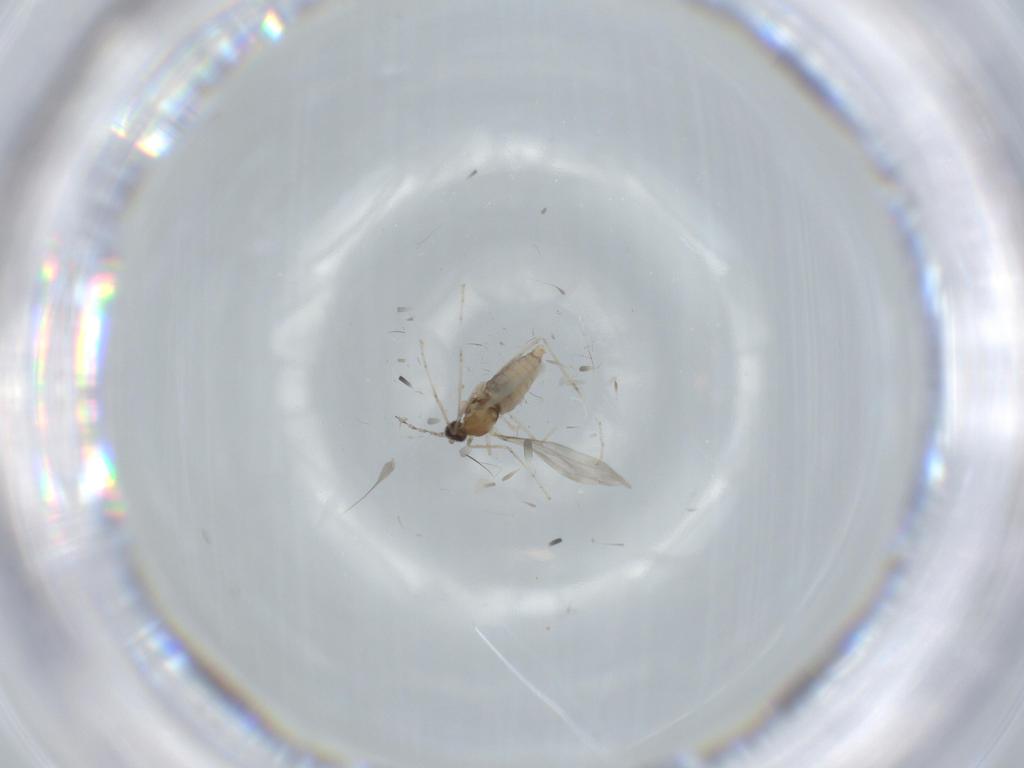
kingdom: Animalia
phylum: Arthropoda
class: Insecta
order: Diptera
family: Cecidomyiidae
